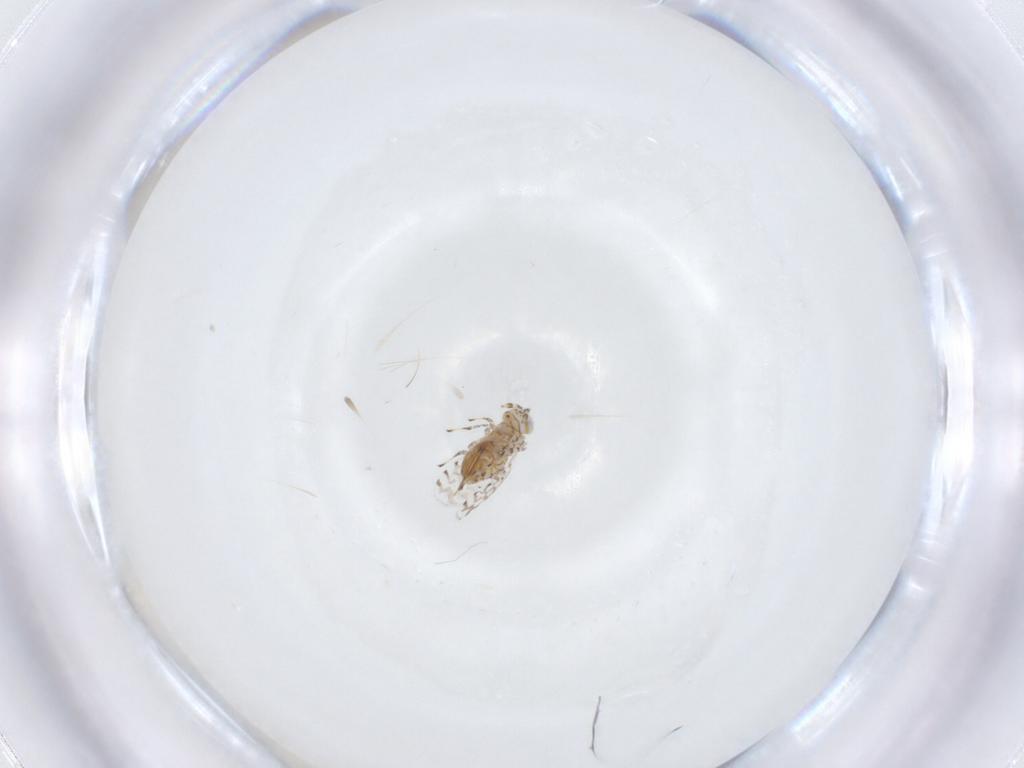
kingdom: Animalia
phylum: Arthropoda
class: Insecta
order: Hymenoptera
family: Aphelinidae
